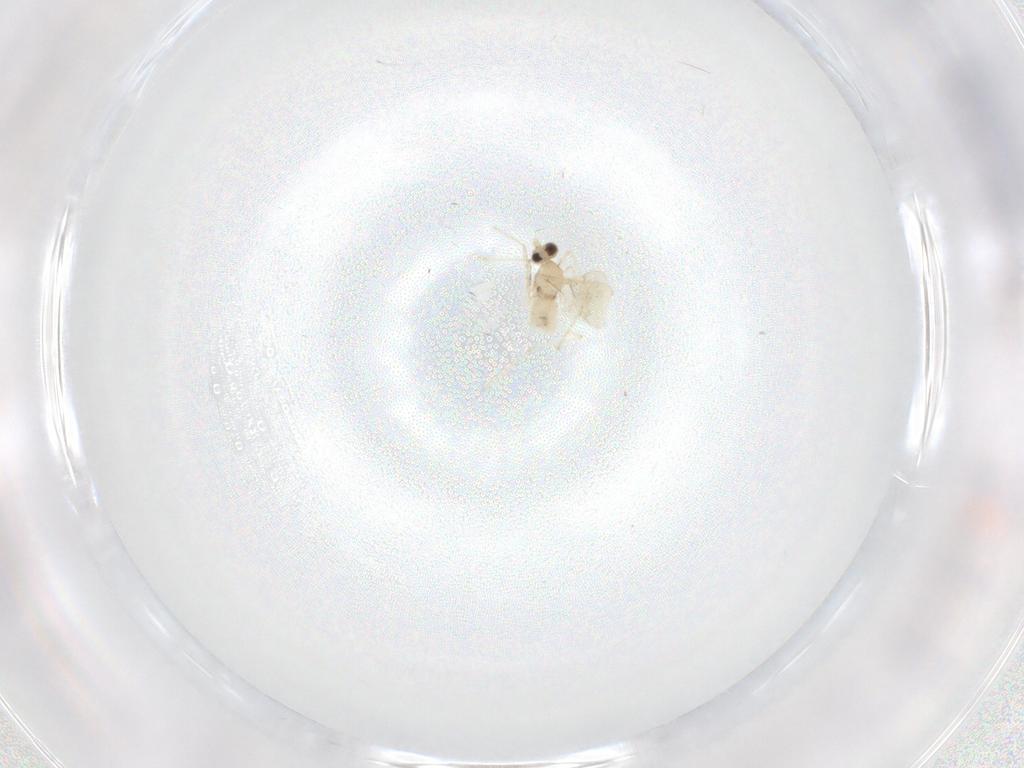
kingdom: Animalia
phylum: Arthropoda
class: Insecta
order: Diptera
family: Cecidomyiidae
